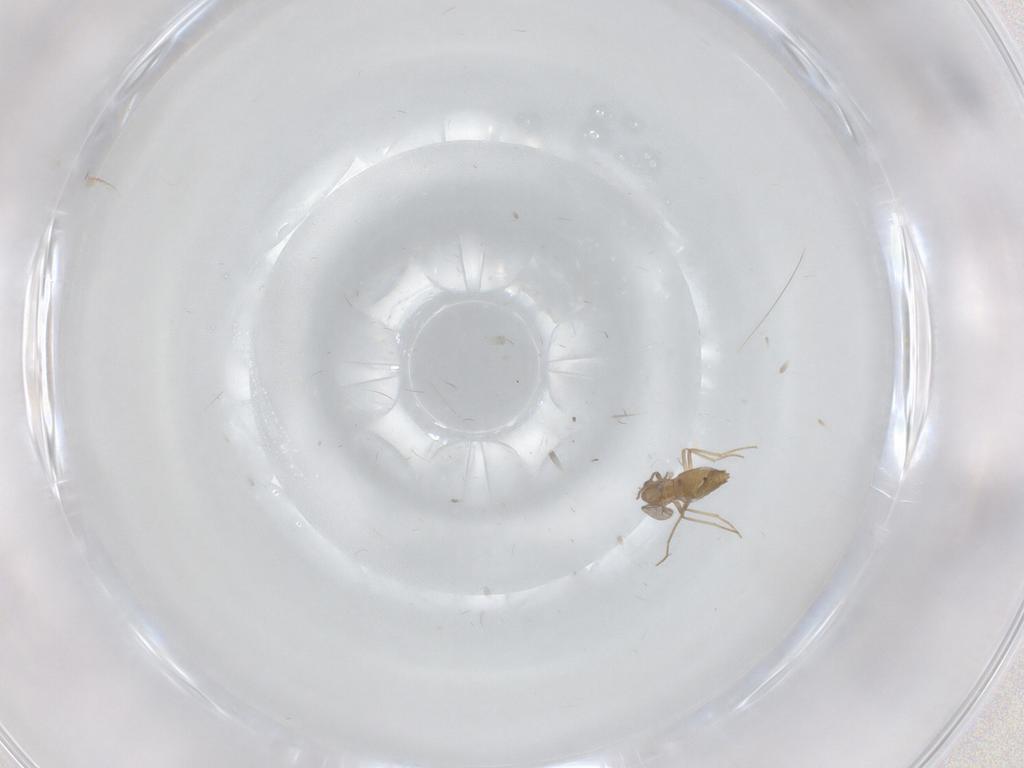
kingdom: Animalia
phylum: Arthropoda
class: Insecta
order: Diptera
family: Chironomidae
